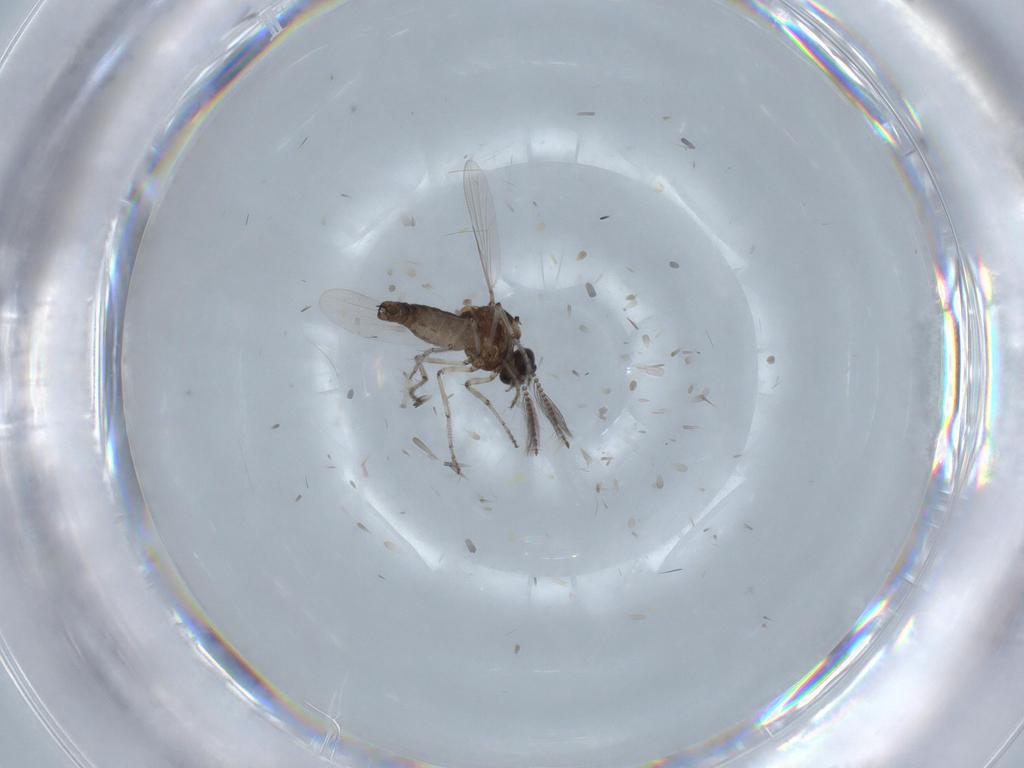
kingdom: Animalia
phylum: Arthropoda
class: Insecta
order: Diptera
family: Ceratopogonidae
